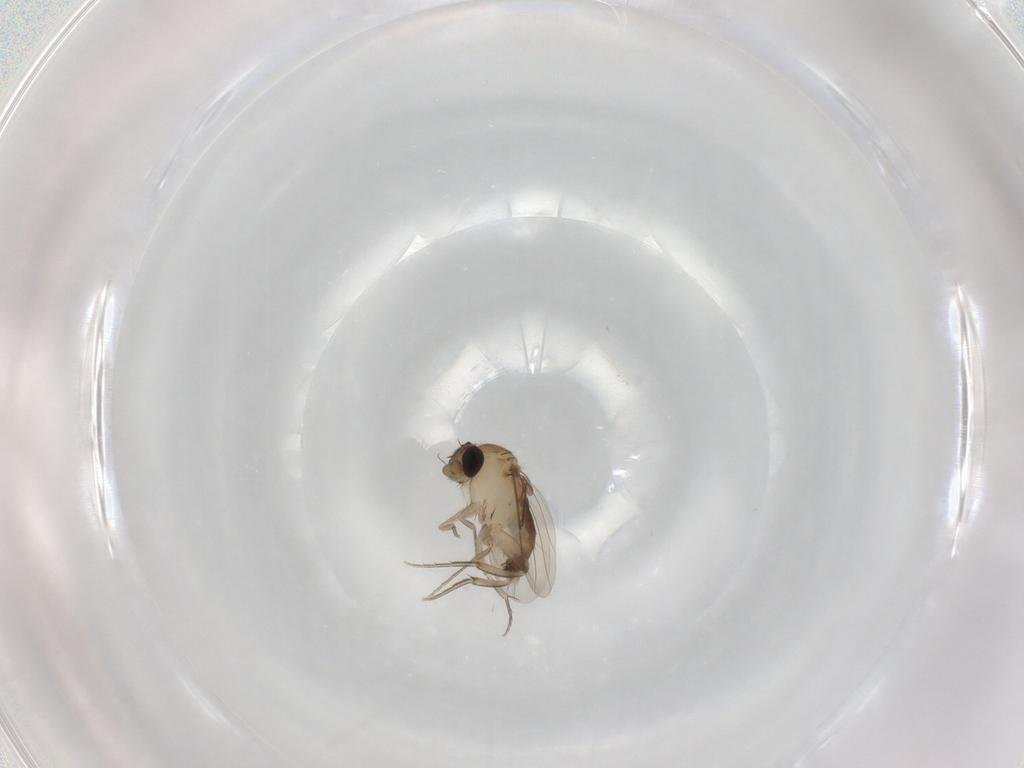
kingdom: Animalia
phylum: Arthropoda
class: Insecta
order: Diptera
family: Phoridae
